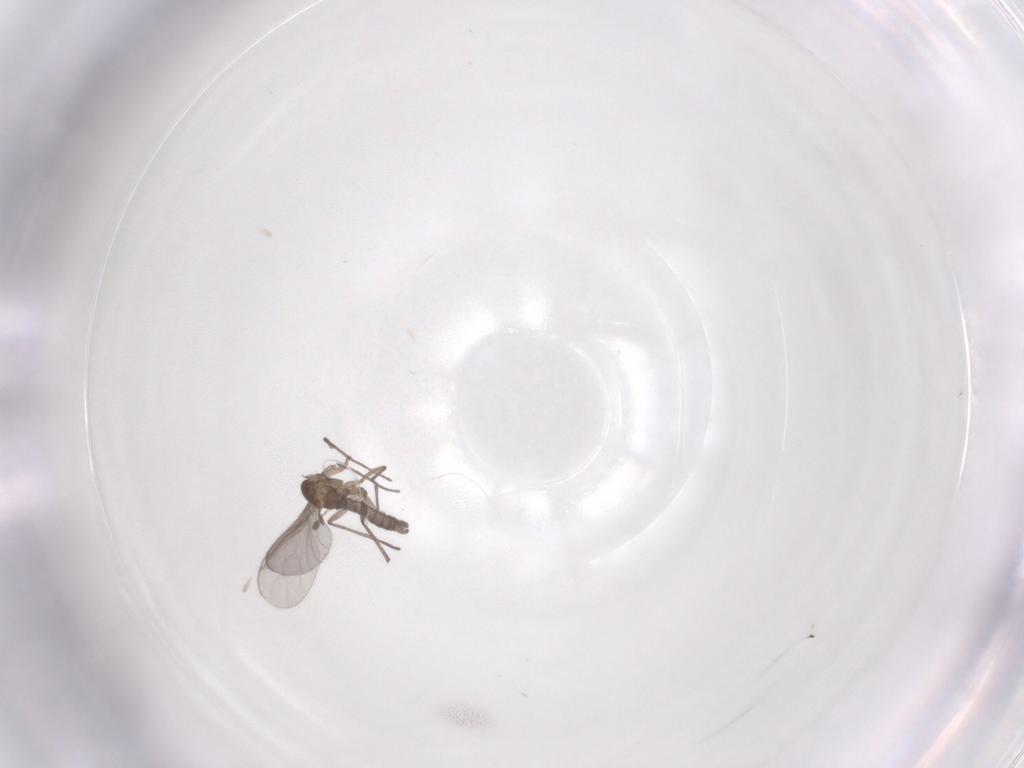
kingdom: Animalia
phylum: Arthropoda
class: Insecta
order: Diptera
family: Sciaridae
